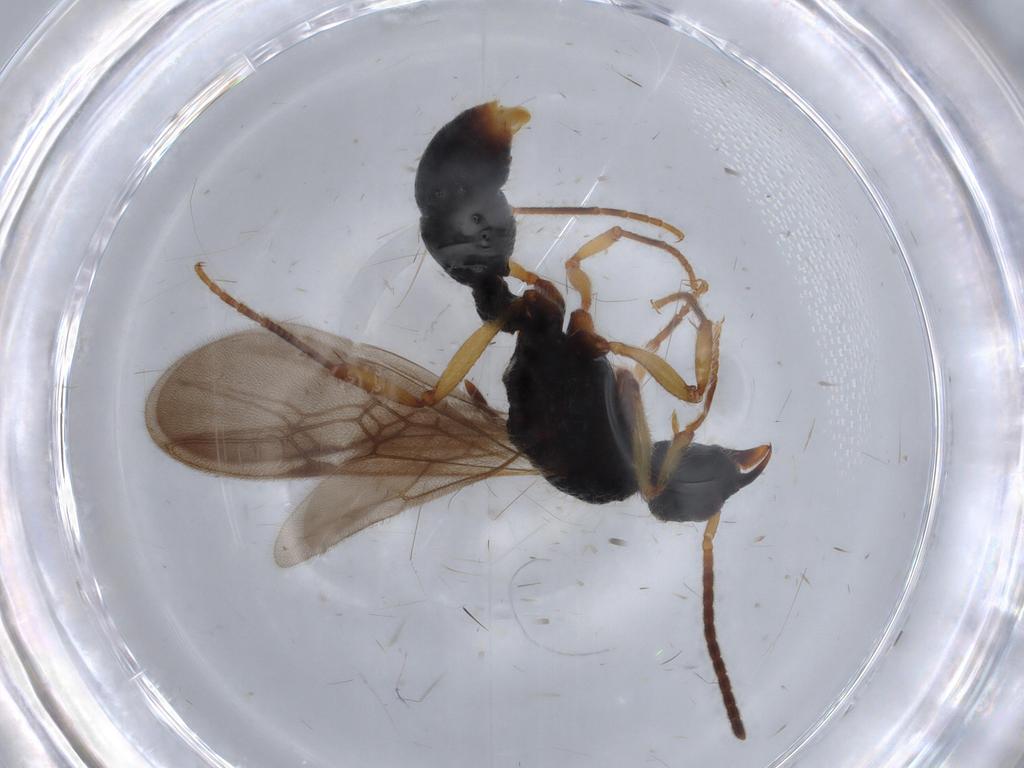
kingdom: Animalia
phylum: Arthropoda
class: Insecta
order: Hymenoptera
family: Formicidae
